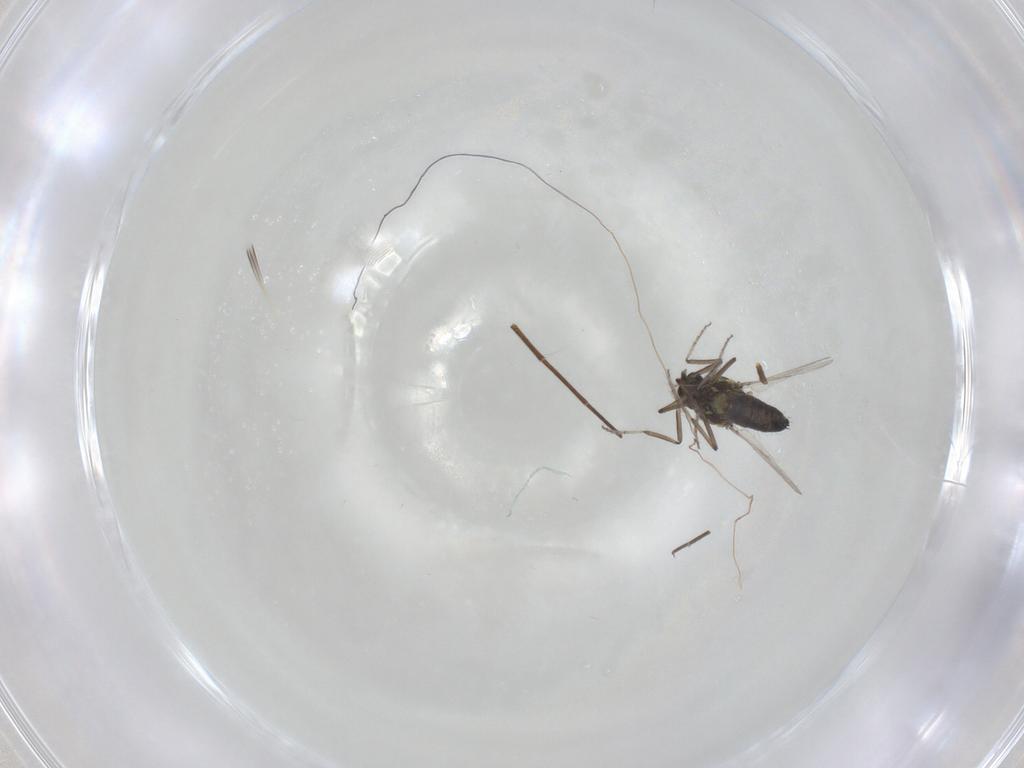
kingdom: Animalia
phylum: Arthropoda
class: Insecta
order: Diptera
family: Ceratopogonidae
